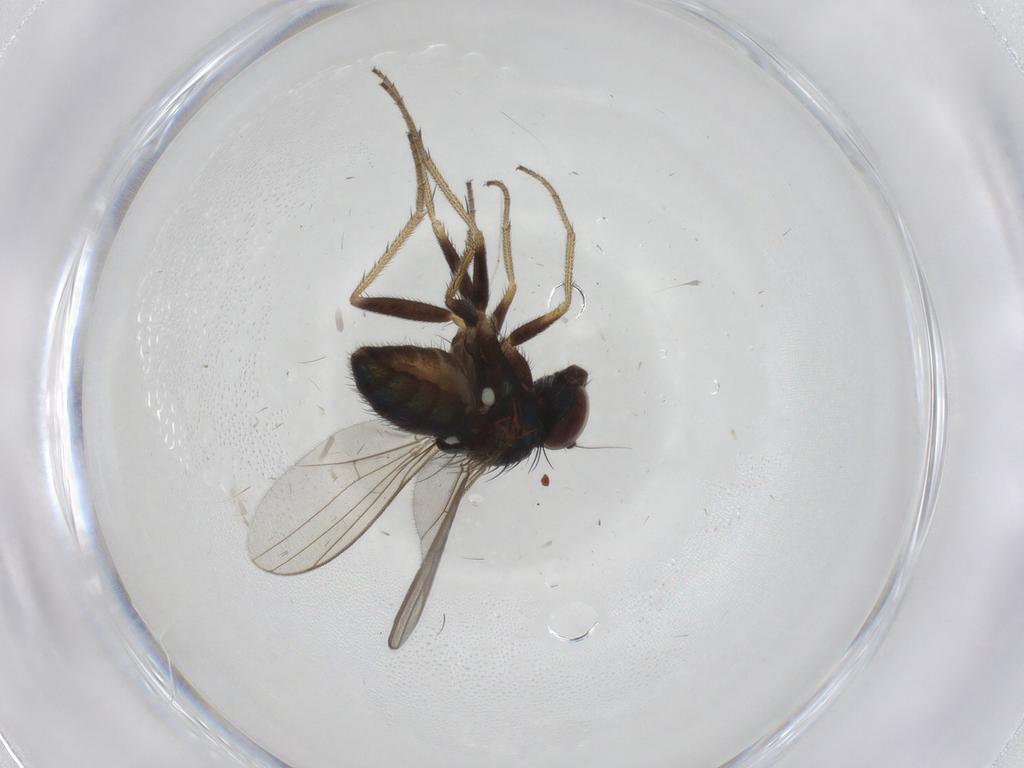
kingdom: Animalia
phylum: Arthropoda
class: Insecta
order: Diptera
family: Dolichopodidae
